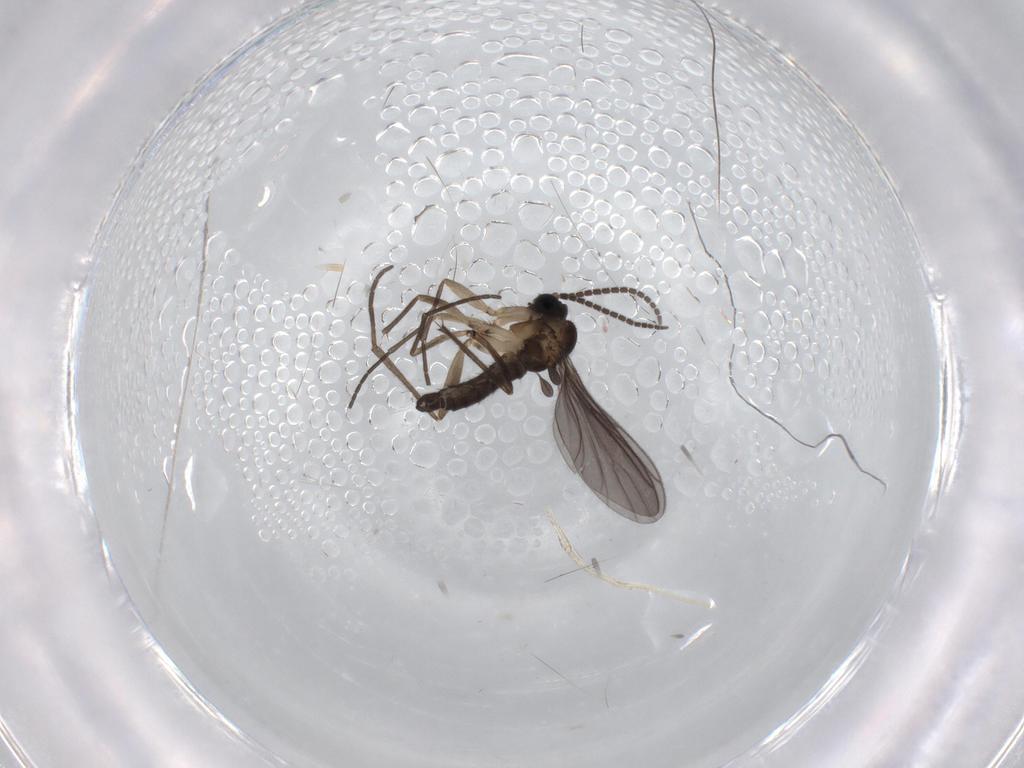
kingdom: Animalia
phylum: Arthropoda
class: Insecta
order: Diptera
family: Sciaridae
